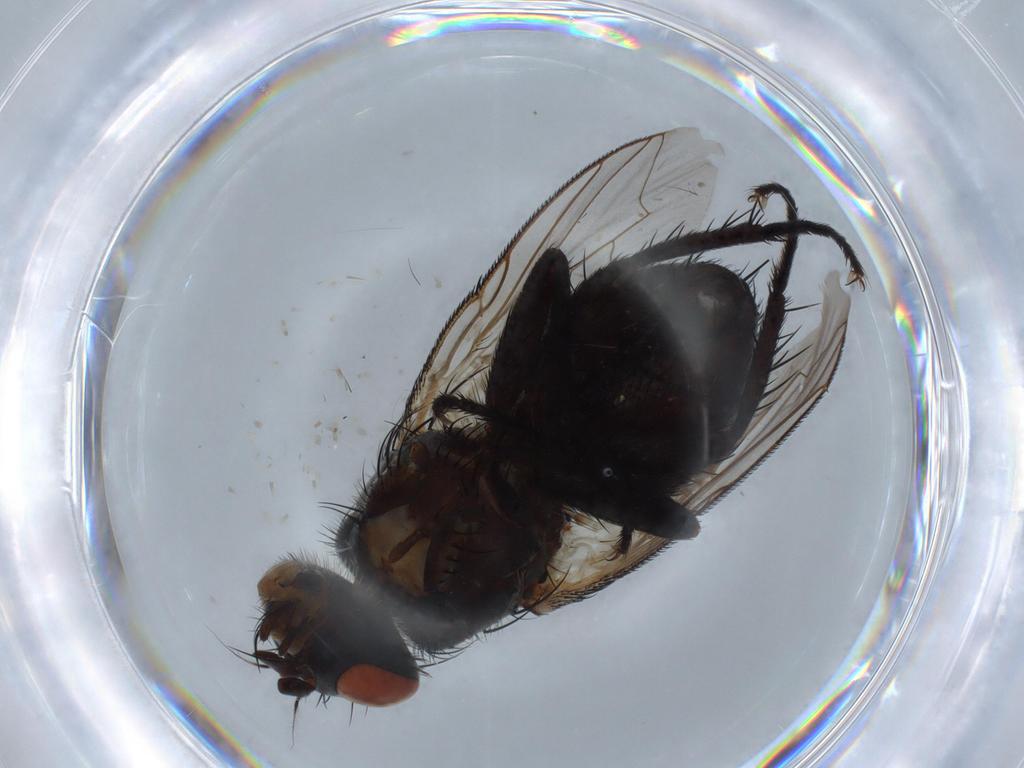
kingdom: Animalia
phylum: Arthropoda
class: Insecta
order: Diptera
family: Sarcophagidae
